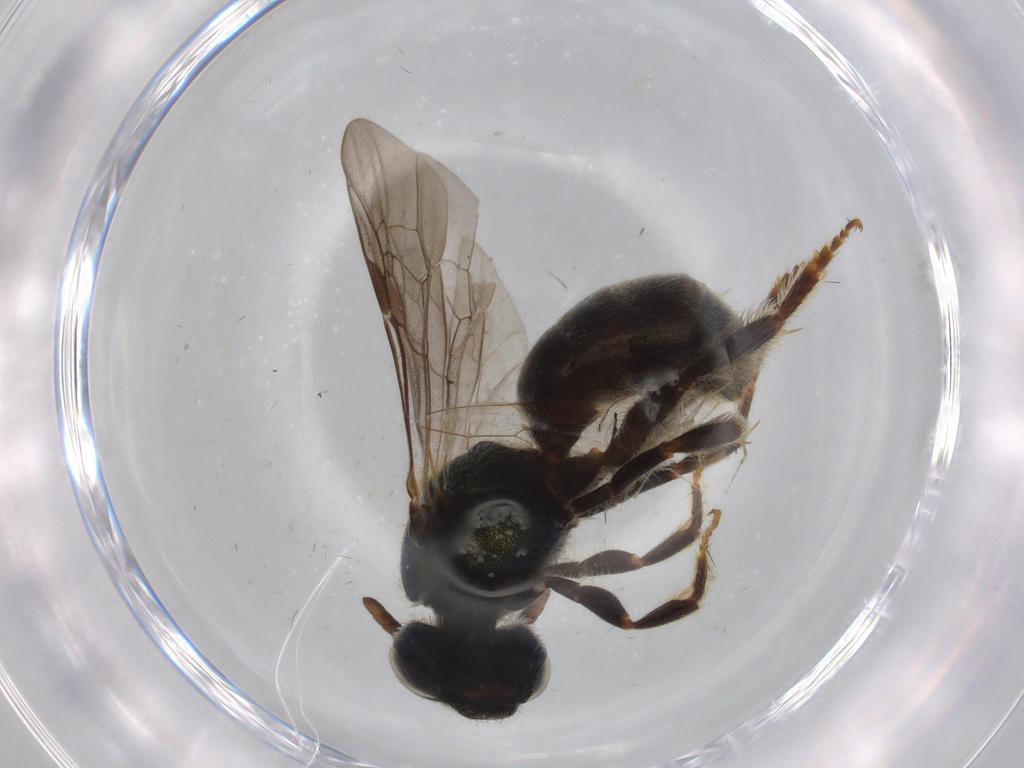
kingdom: Animalia
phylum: Arthropoda
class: Insecta
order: Hymenoptera
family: Halictidae
